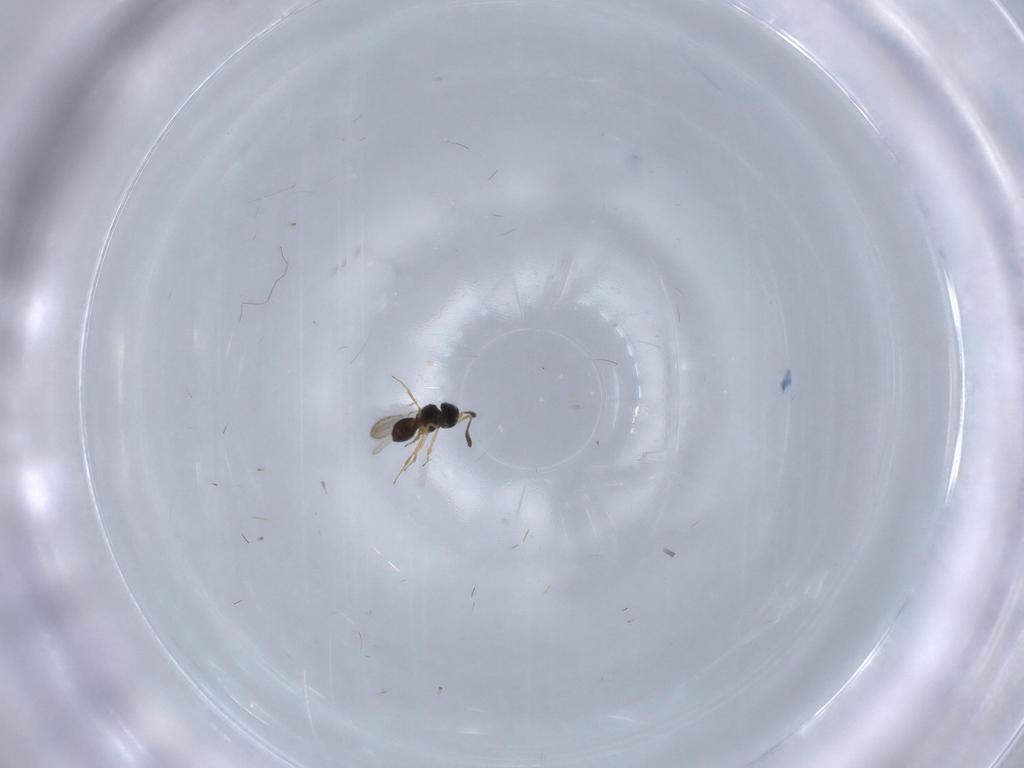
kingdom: Animalia
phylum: Arthropoda
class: Insecta
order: Hymenoptera
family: Scelionidae
